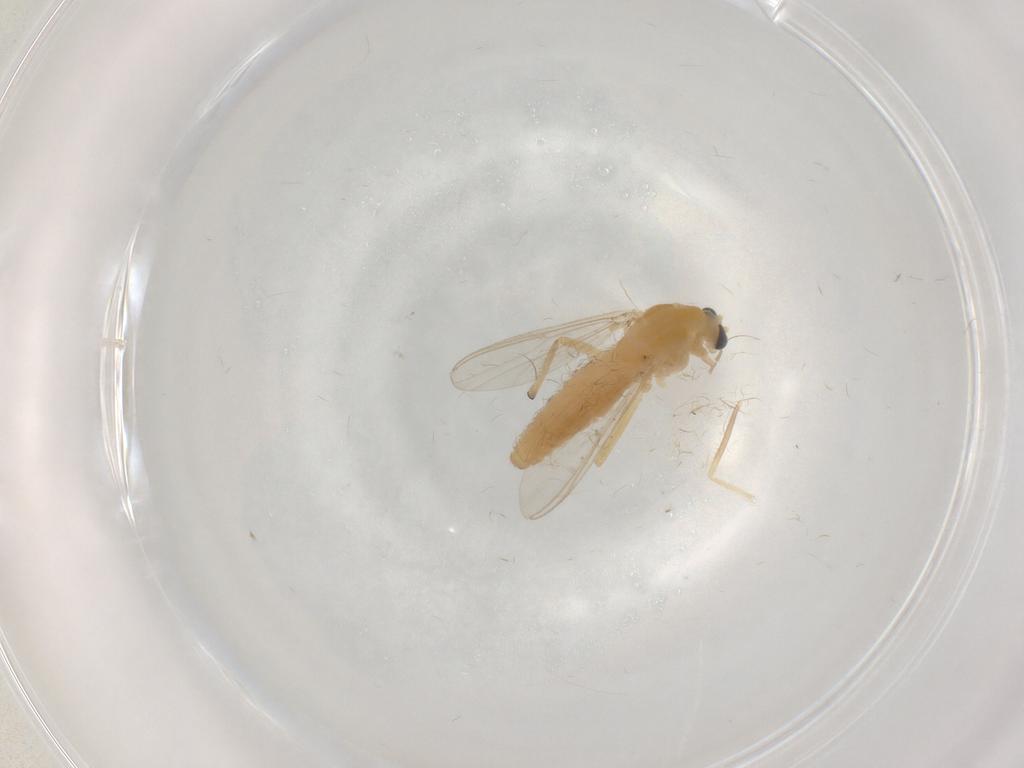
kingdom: Animalia
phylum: Arthropoda
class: Insecta
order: Diptera
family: Chironomidae
